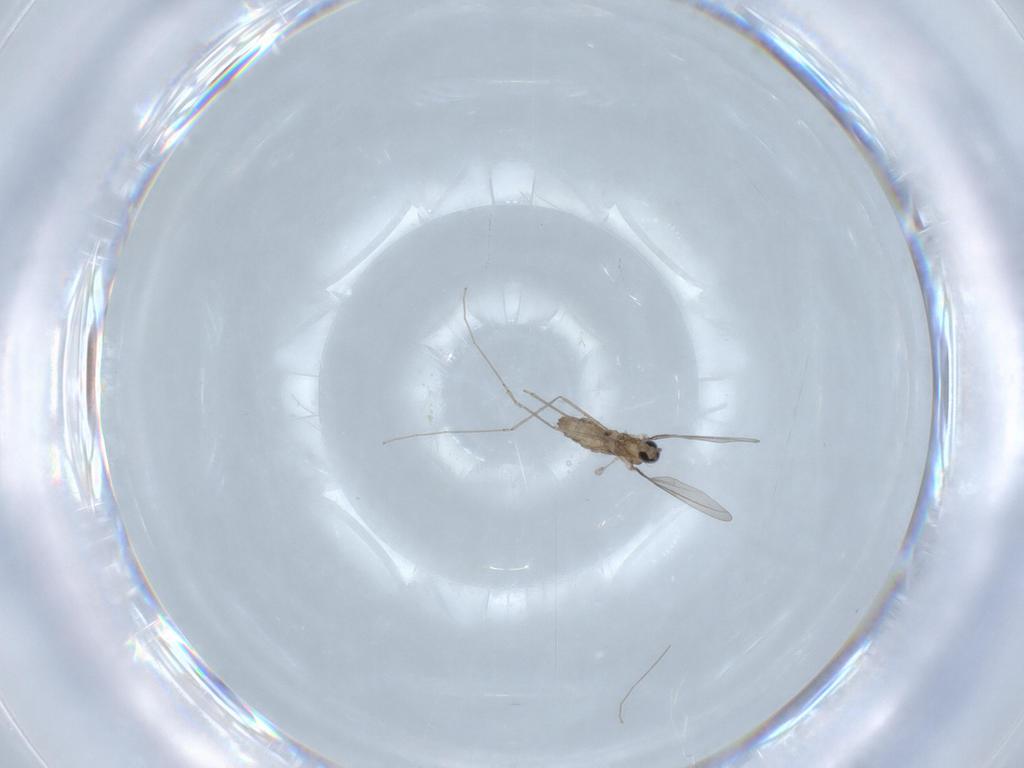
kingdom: Animalia
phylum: Arthropoda
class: Insecta
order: Diptera
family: Cecidomyiidae
